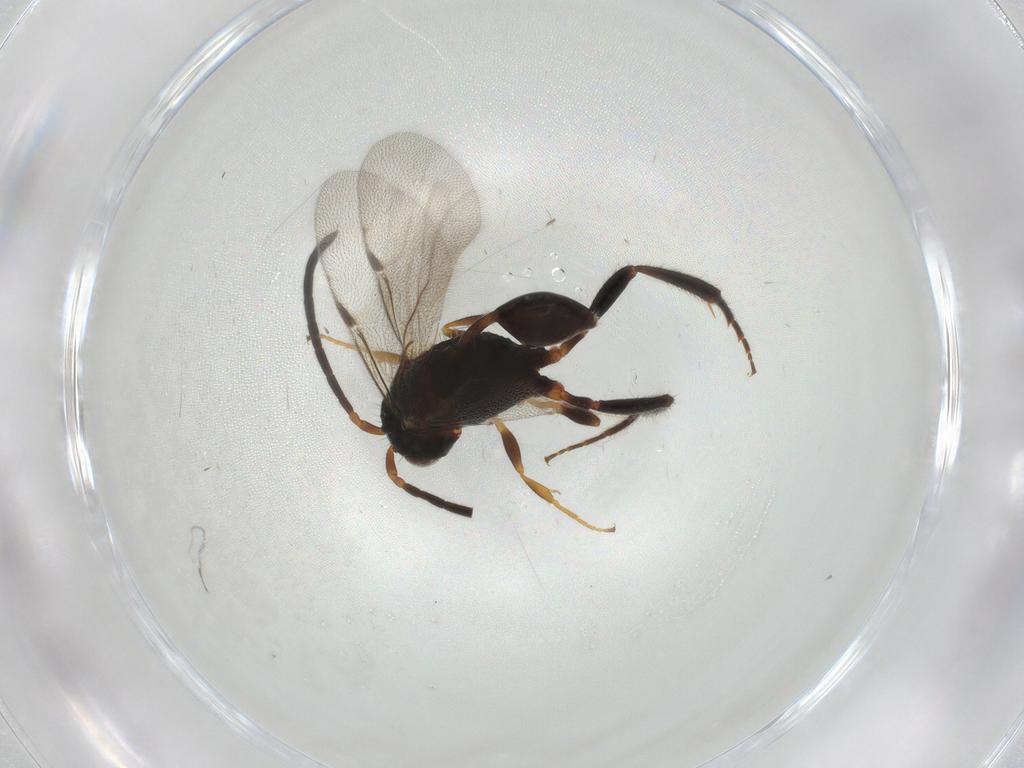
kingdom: Animalia
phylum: Arthropoda
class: Insecta
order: Hymenoptera
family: Evaniidae
